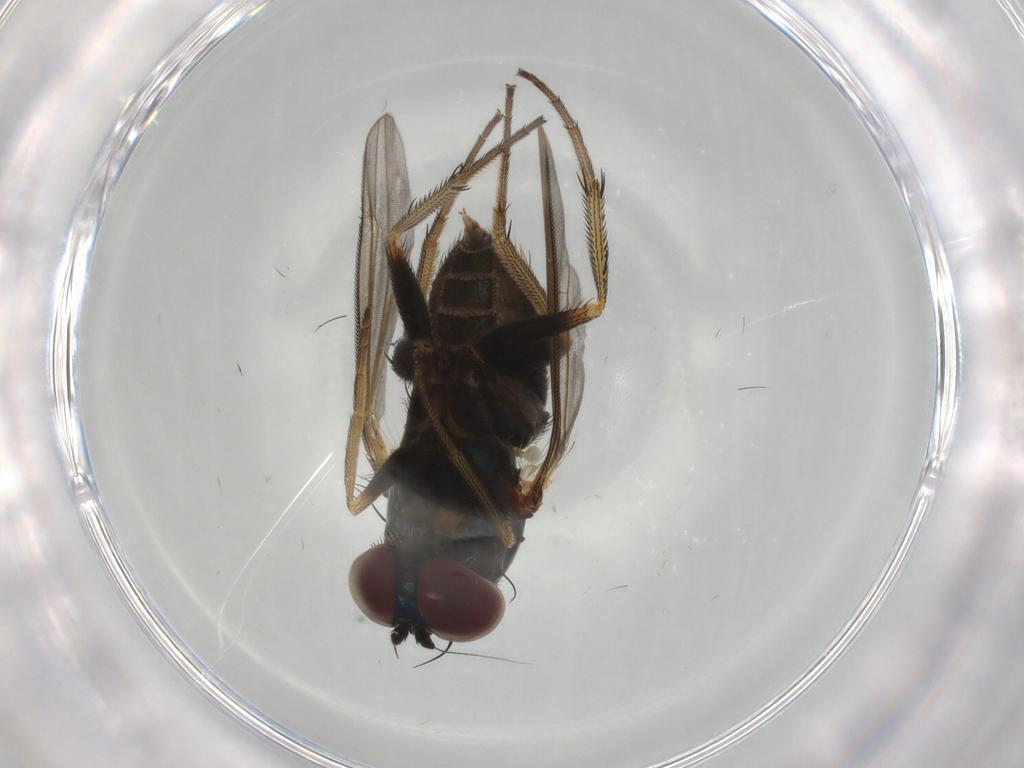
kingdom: Animalia
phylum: Arthropoda
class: Insecta
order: Diptera
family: Dolichopodidae
